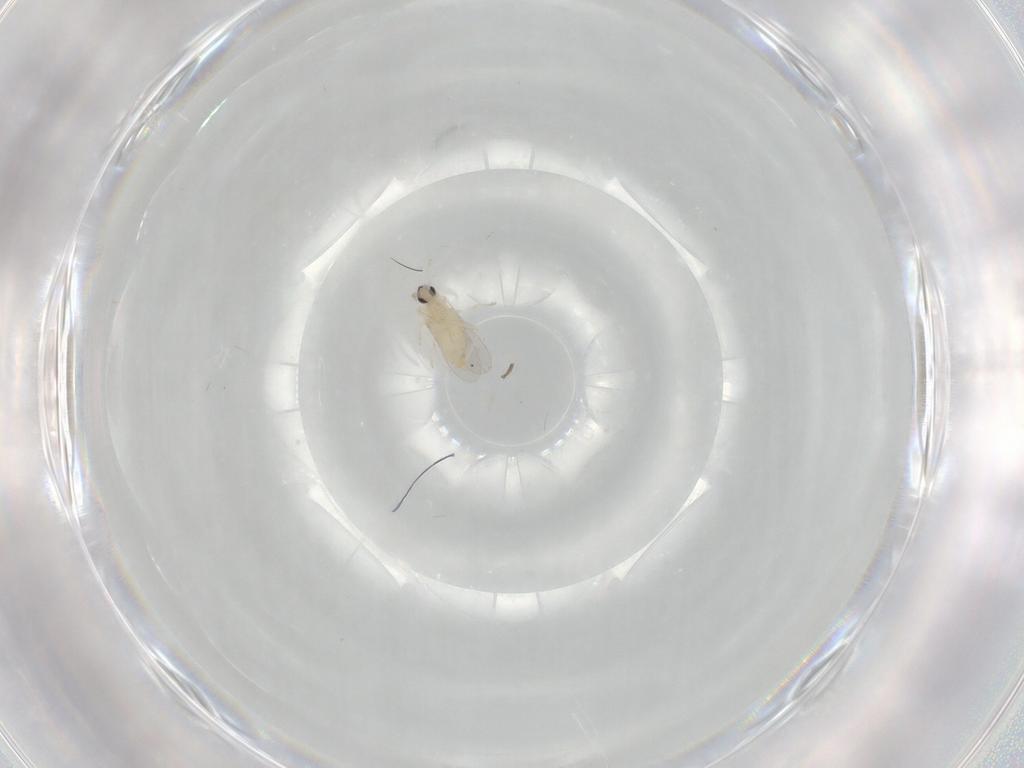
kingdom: Animalia
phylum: Arthropoda
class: Insecta
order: Diptera
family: Cecidomyiidae
